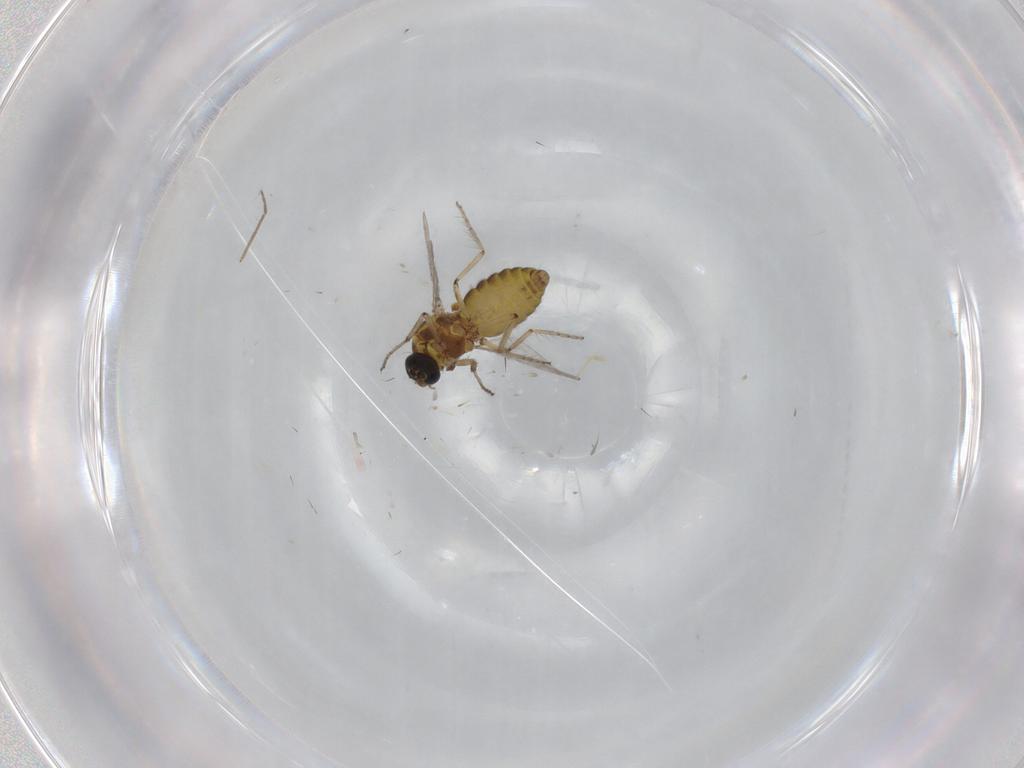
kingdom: Animalia
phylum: Arthropoda
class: Insecta
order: Diptera
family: Ceratopogonidae
